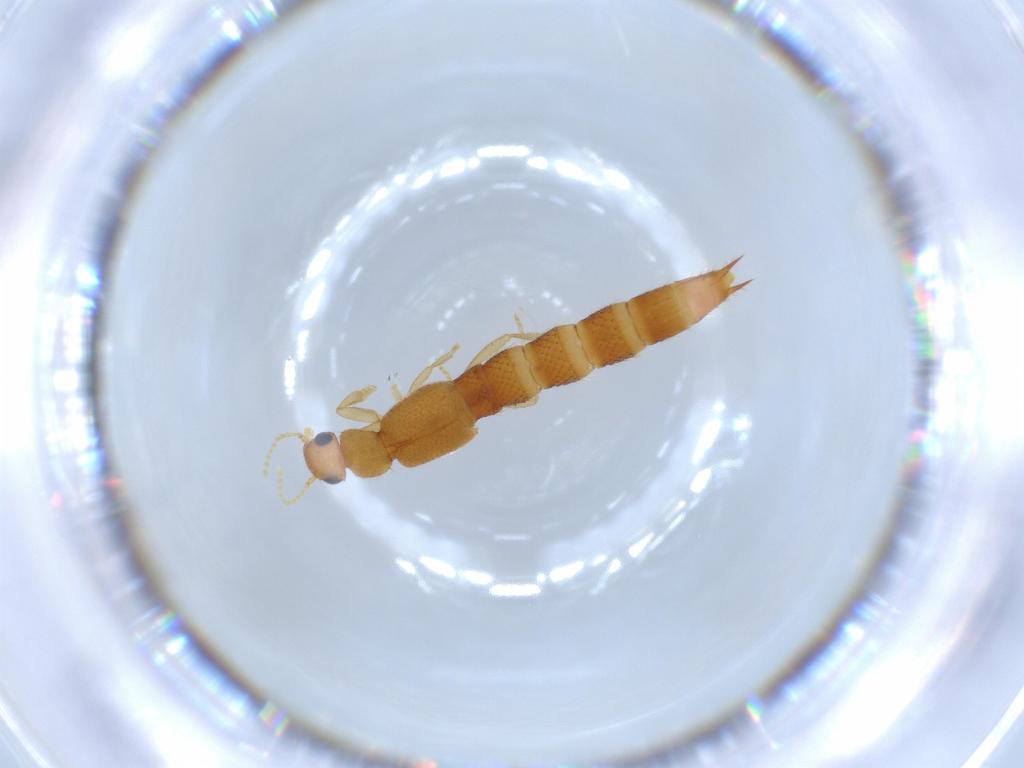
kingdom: Animalia
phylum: Arthropoda
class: Insecta
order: Coleoptera
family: Staphylinidae
